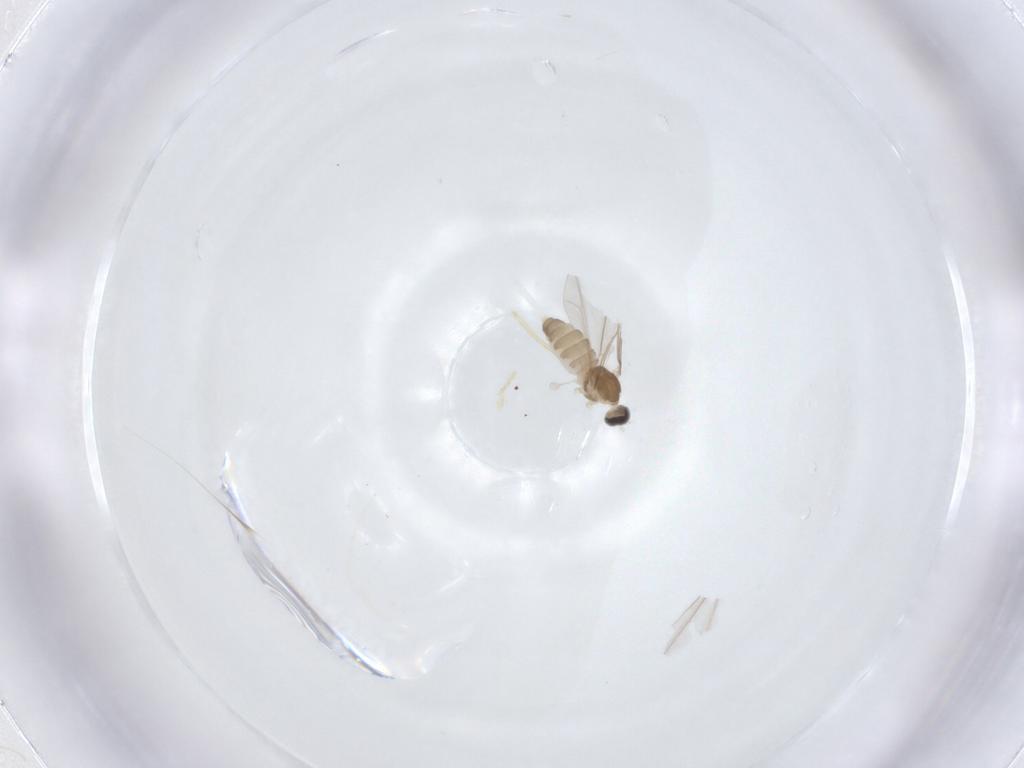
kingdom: Animalia
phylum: Arthropoda
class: Insecta
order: Diptera
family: Cecidomyiidae
